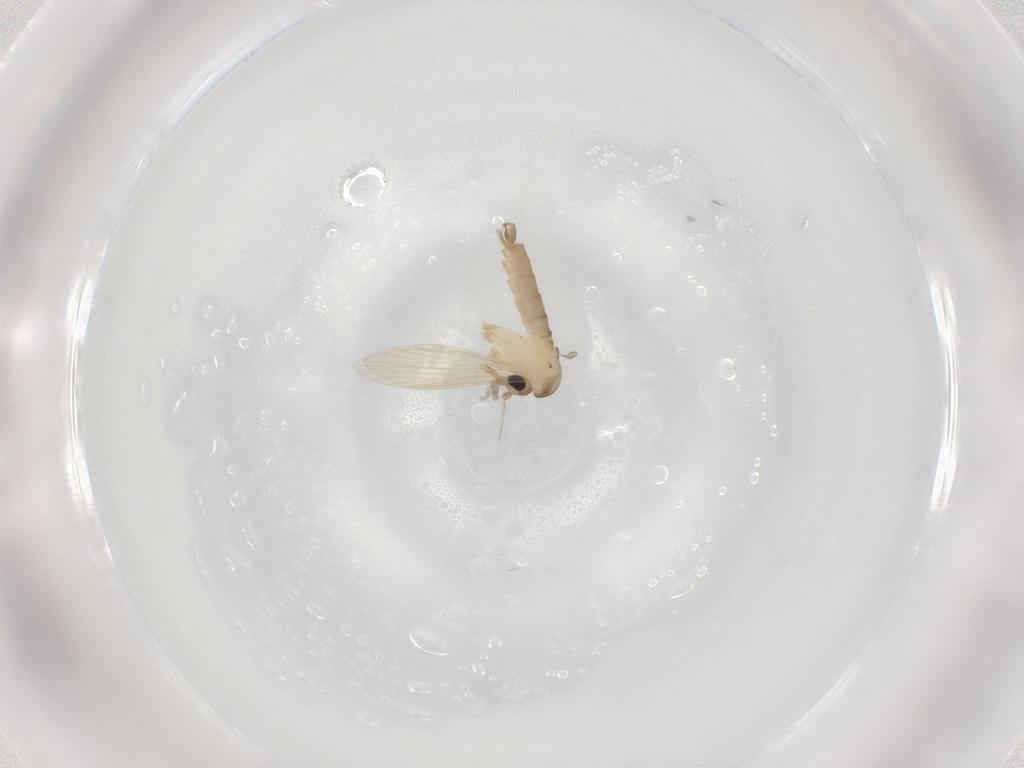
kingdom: Animalia
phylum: Arthropoda
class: Insecta
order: Diptera
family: Psychodidae
